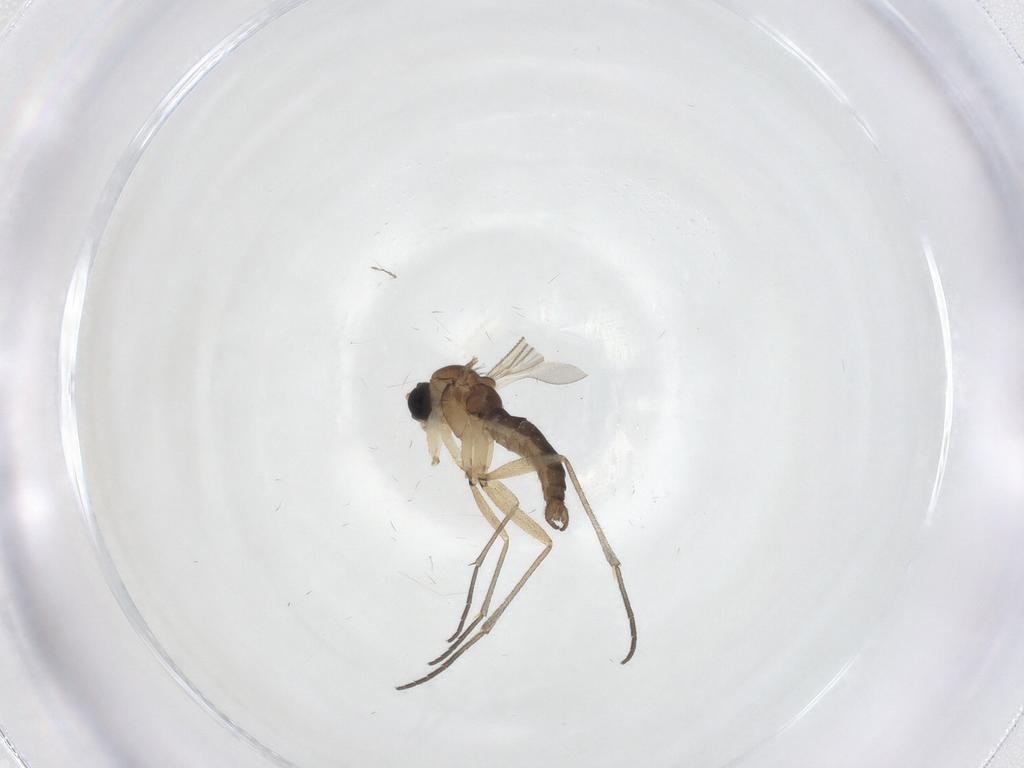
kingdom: Animalia
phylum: Arthropoda
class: Insecta
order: Diptera
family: Sciaridae
